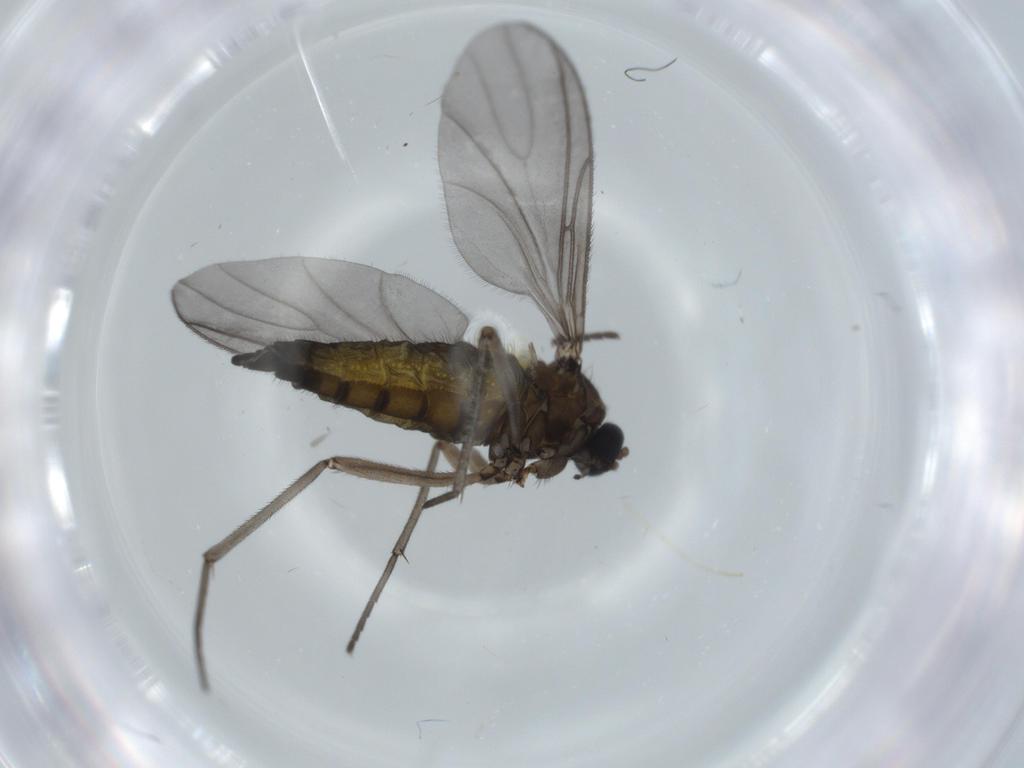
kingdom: Animalia
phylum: Arthropoda
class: Insecta
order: Diptera
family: Sciaridae
